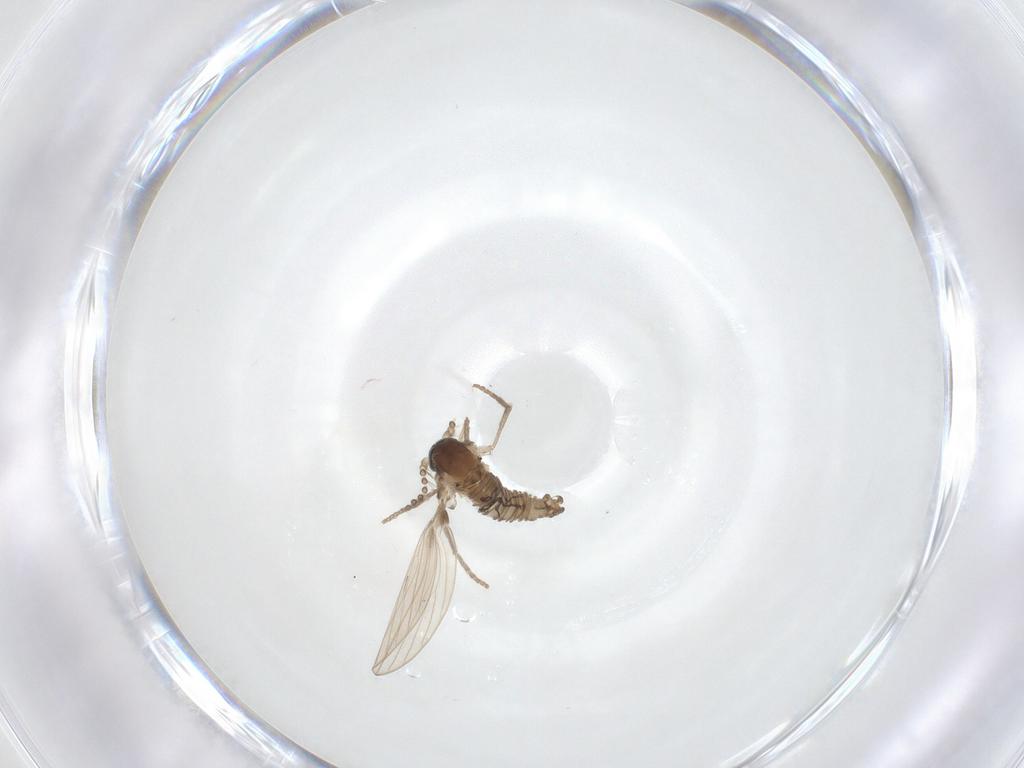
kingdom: Animalia
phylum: Arthropoda
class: Insecta
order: Diptera
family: Psychodidae
